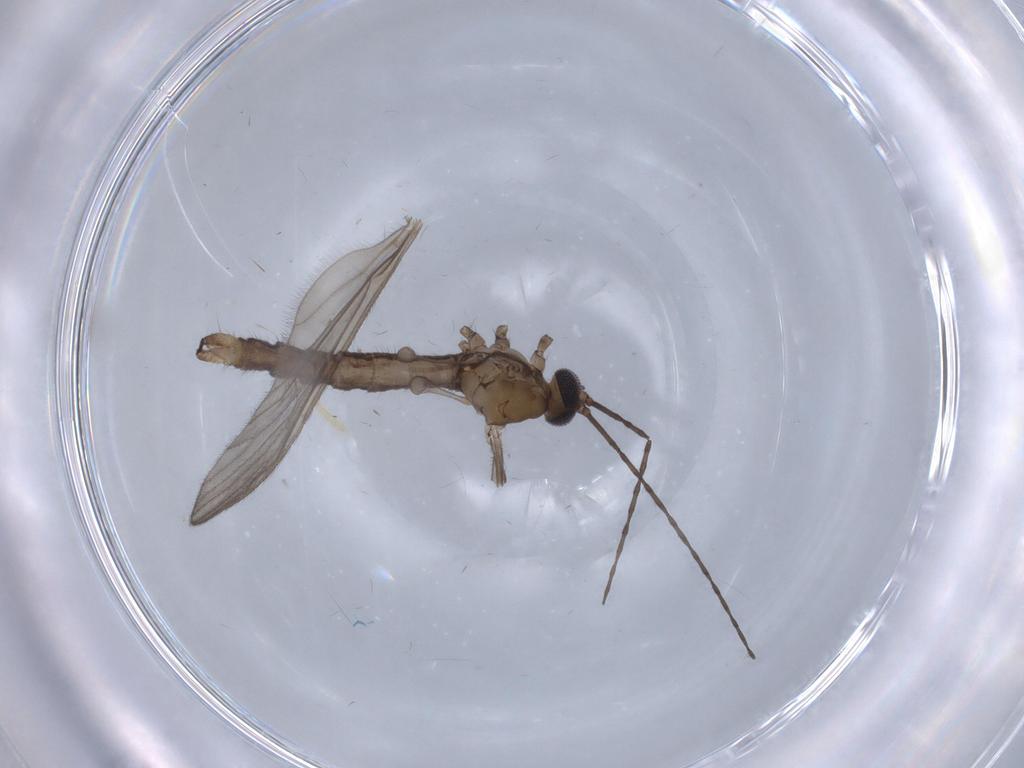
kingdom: Animalia
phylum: Arthropoda
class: Insecta
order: Diptera
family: Limoniidae
